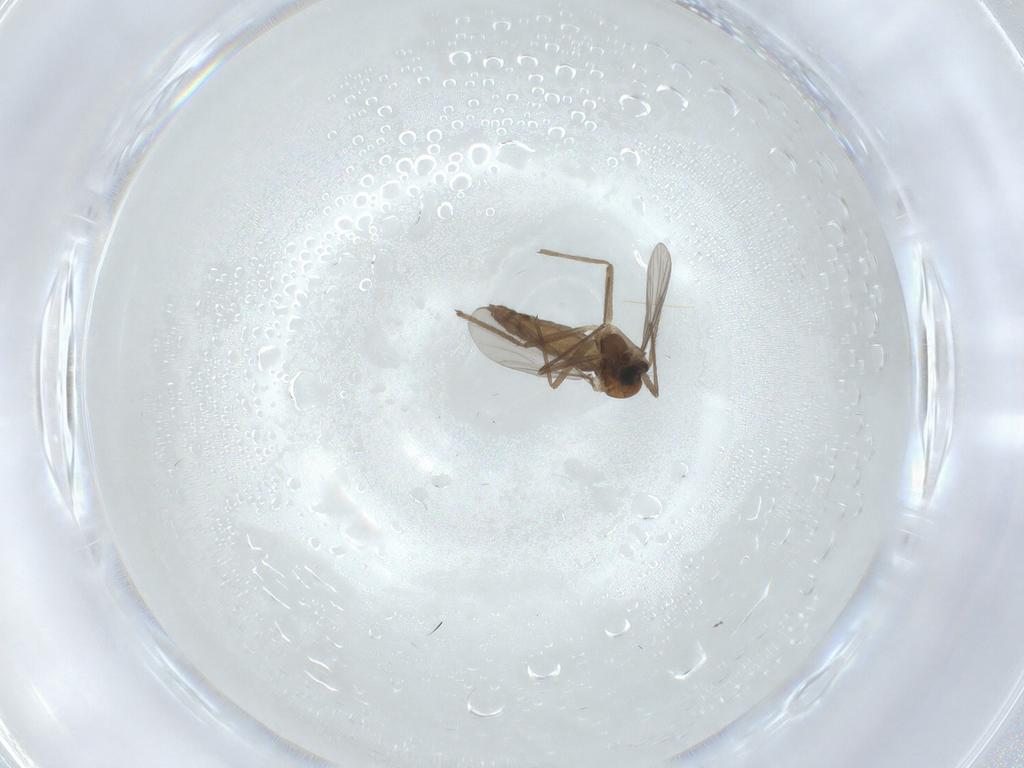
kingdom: Animalia
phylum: Arthropoda
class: Insecta
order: Diptera
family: Chironomidae
